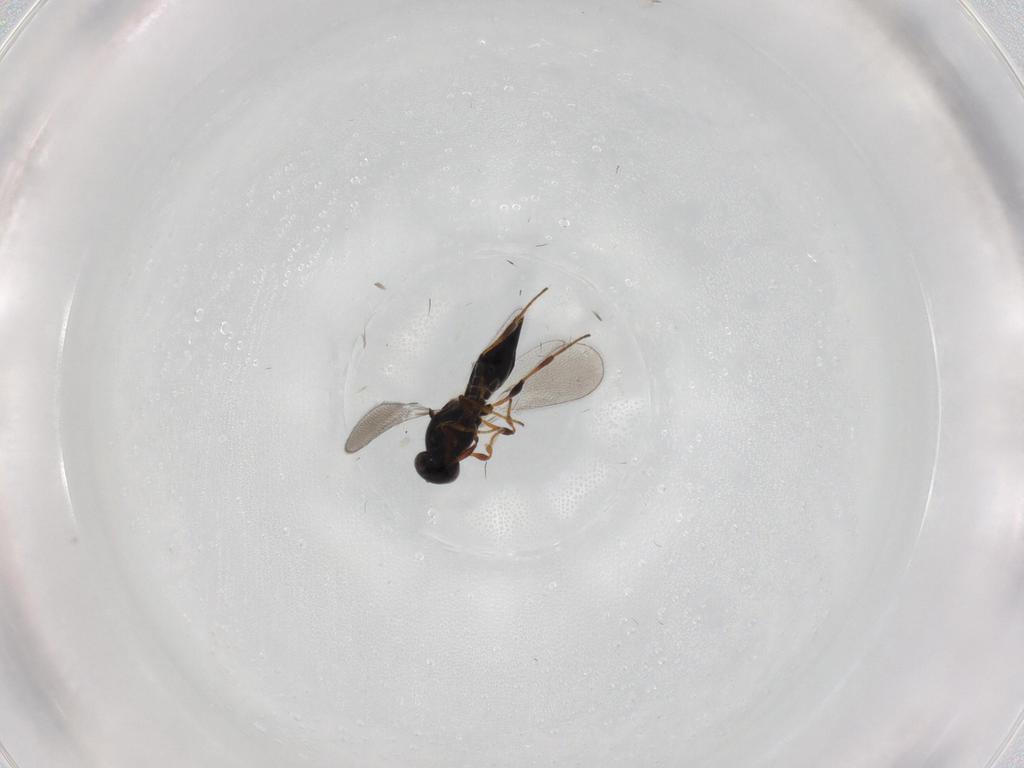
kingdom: Animalia
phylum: Arthropoda
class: Insecta
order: Hymenoptera
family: Platygastridae
